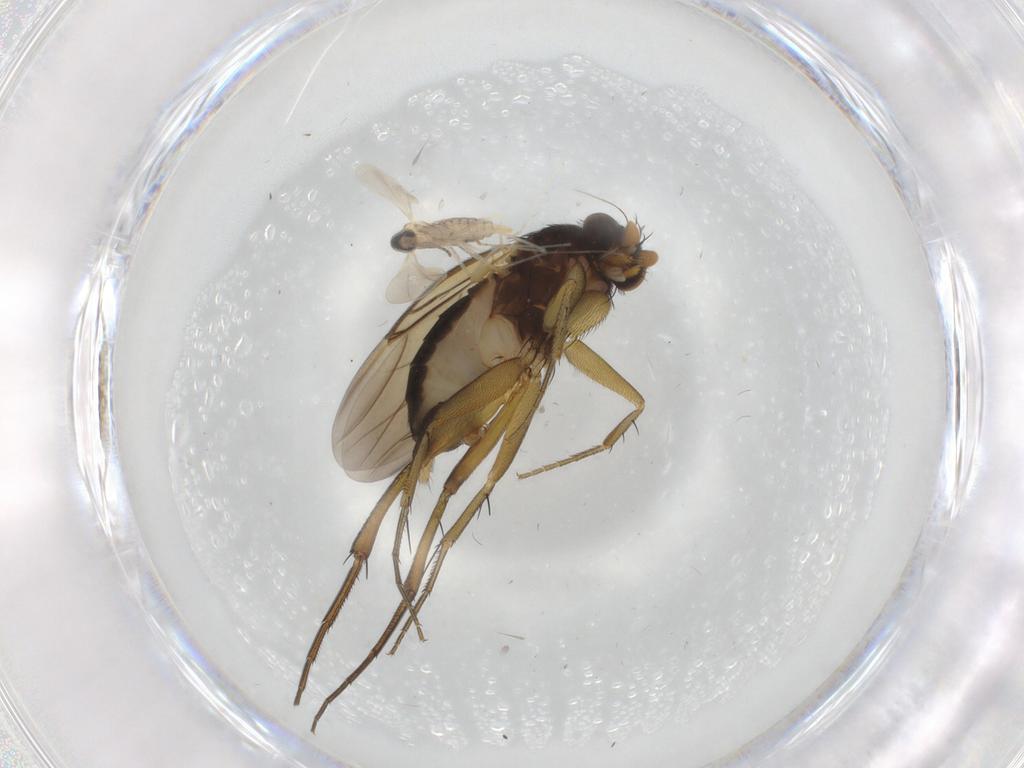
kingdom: Animalia
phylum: Arthropoda
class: Insecta
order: Diptera
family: Phoridae
